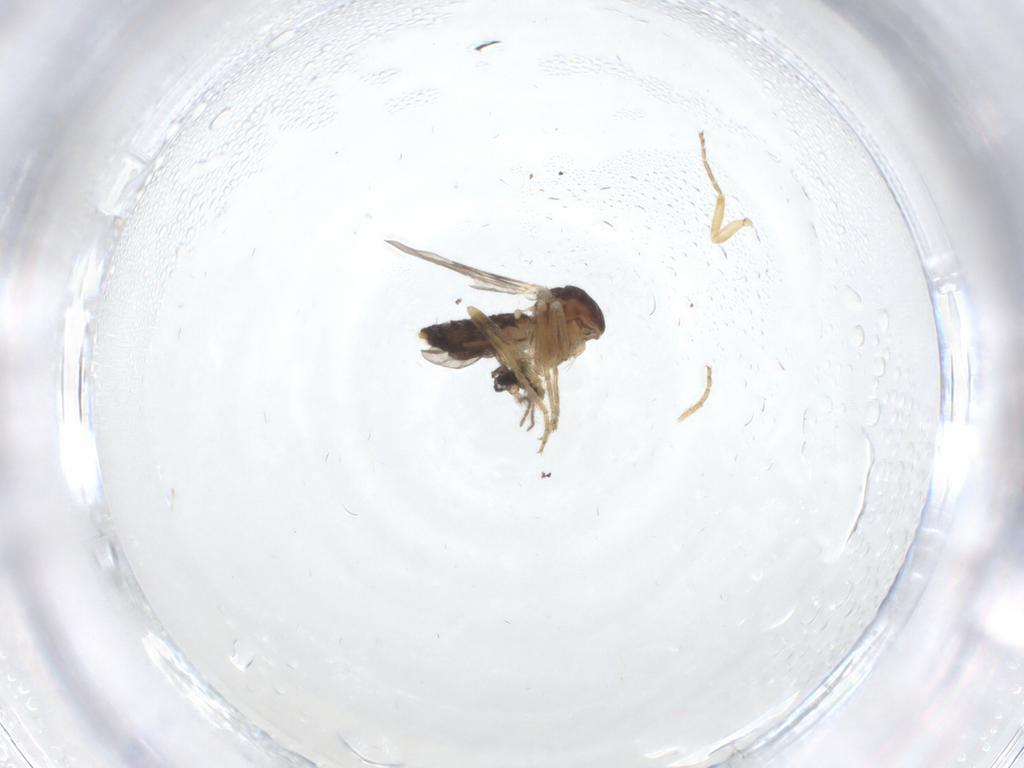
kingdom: Animalia
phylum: Arthropoda
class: Insecta
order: Diptera
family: Ceratopogonidae
